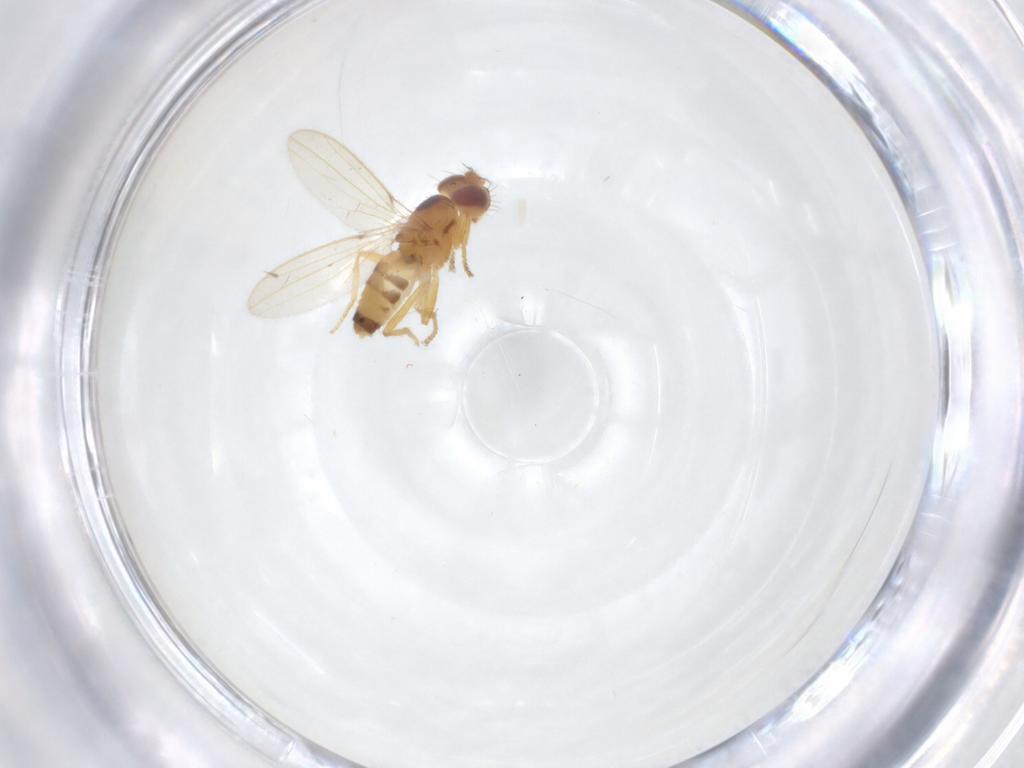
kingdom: Animalia
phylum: Arthropoda
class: Insecta
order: Diptera
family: Periscelididae
